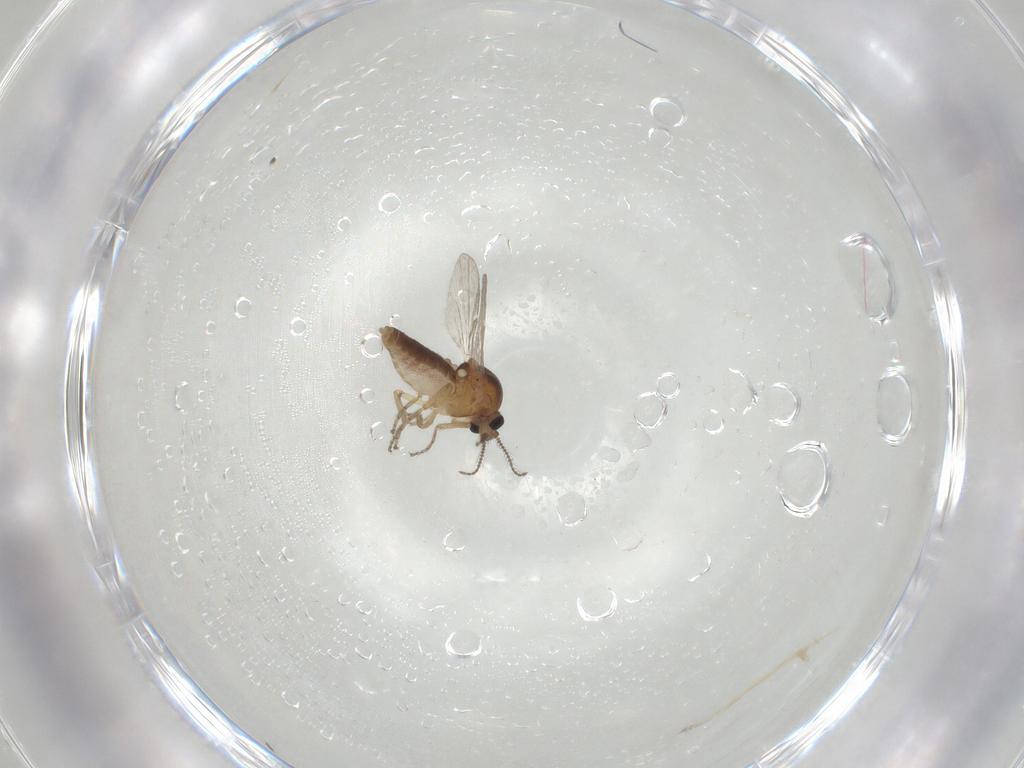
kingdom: Animalia
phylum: Arthropoda
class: Insecta
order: Diptera
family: Ceratopogonidae
